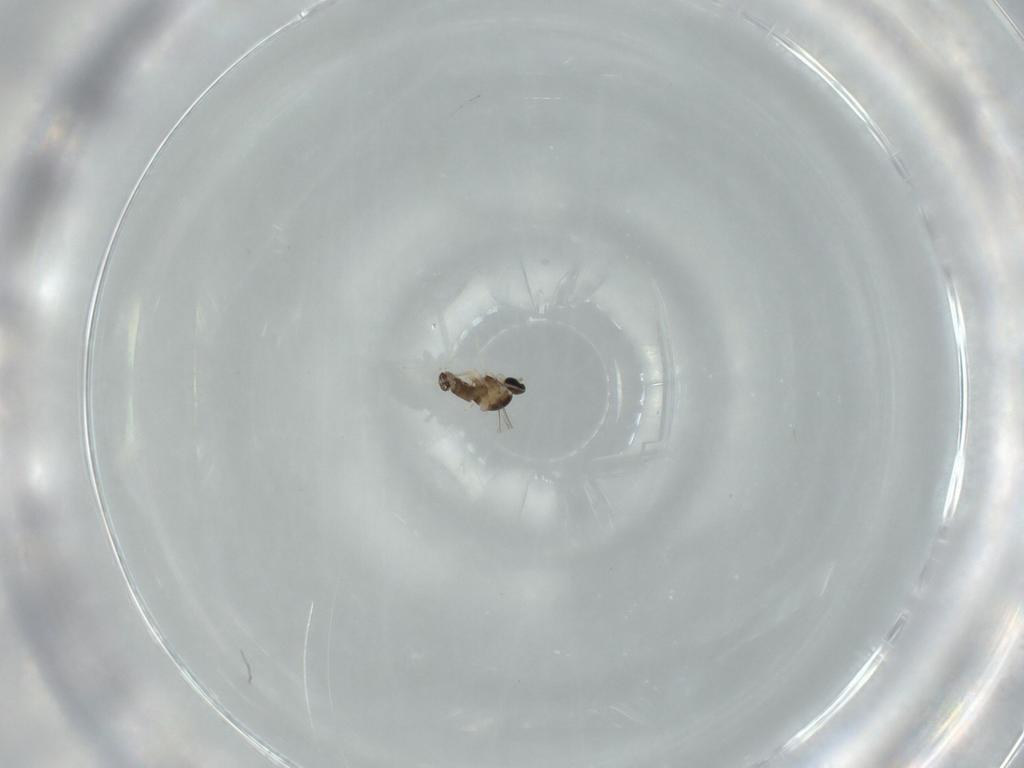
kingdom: Animalia
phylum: Arthropoda
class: Insecta
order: Diptera
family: Cecidomyiidae
